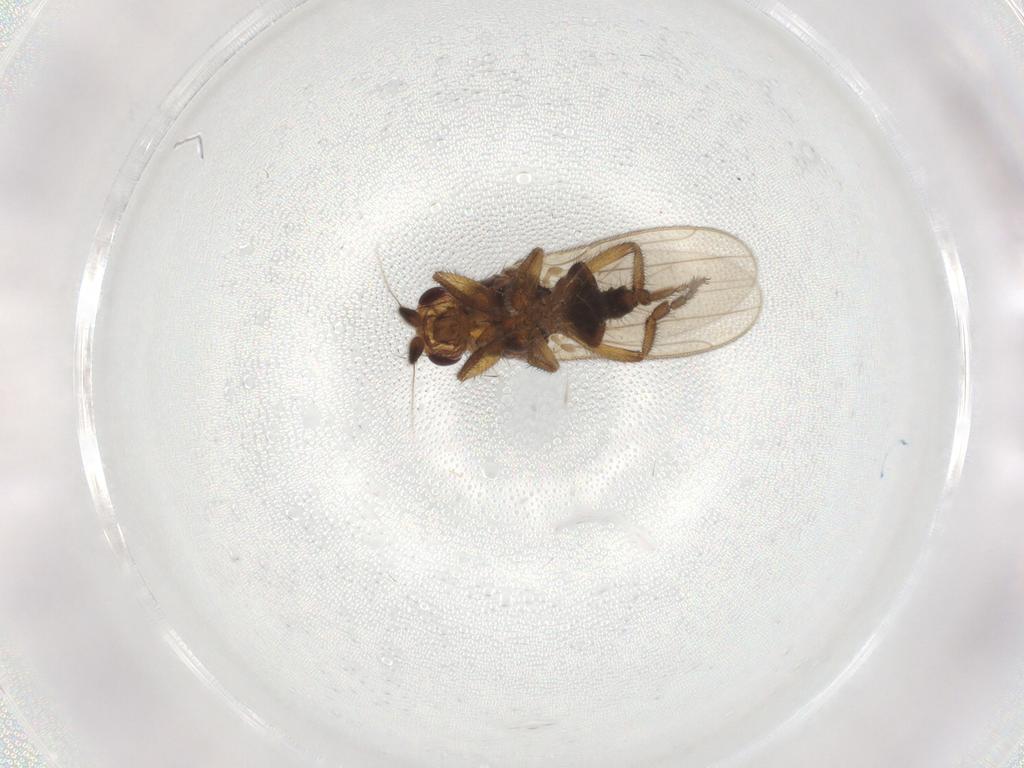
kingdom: Animalia
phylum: Arthropoda
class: Insecta
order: Diptera
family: Sphaeroceridae
